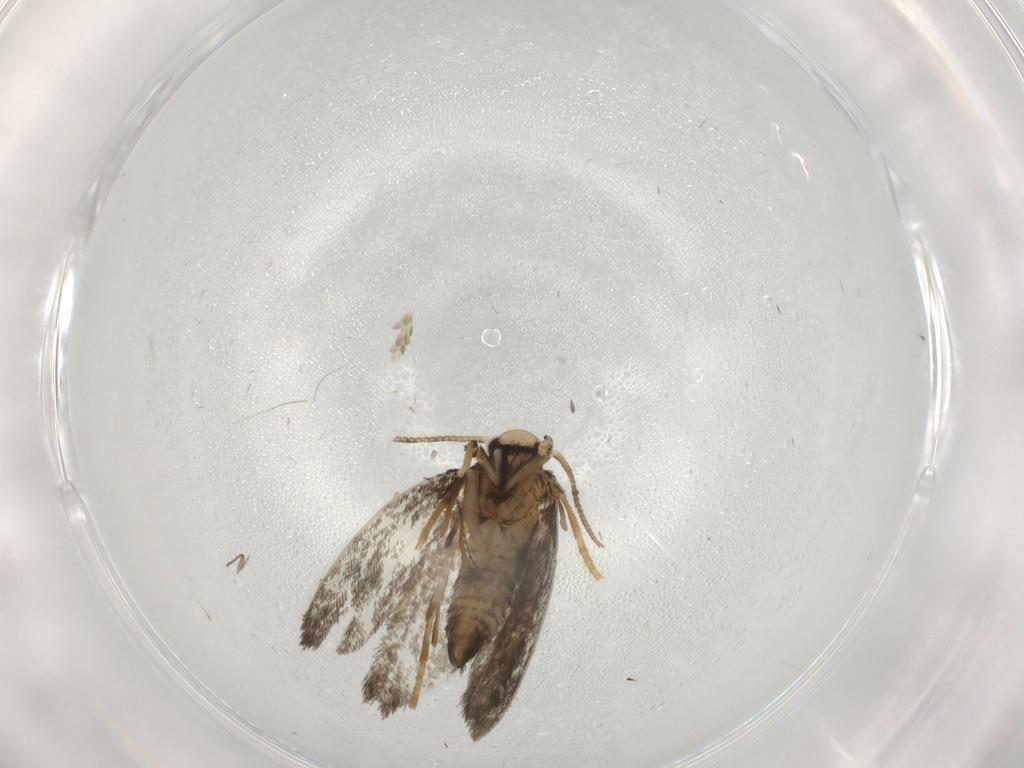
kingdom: Animalia
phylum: Arthropoda
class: Insecta
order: Lepidoptera
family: Psychidae
